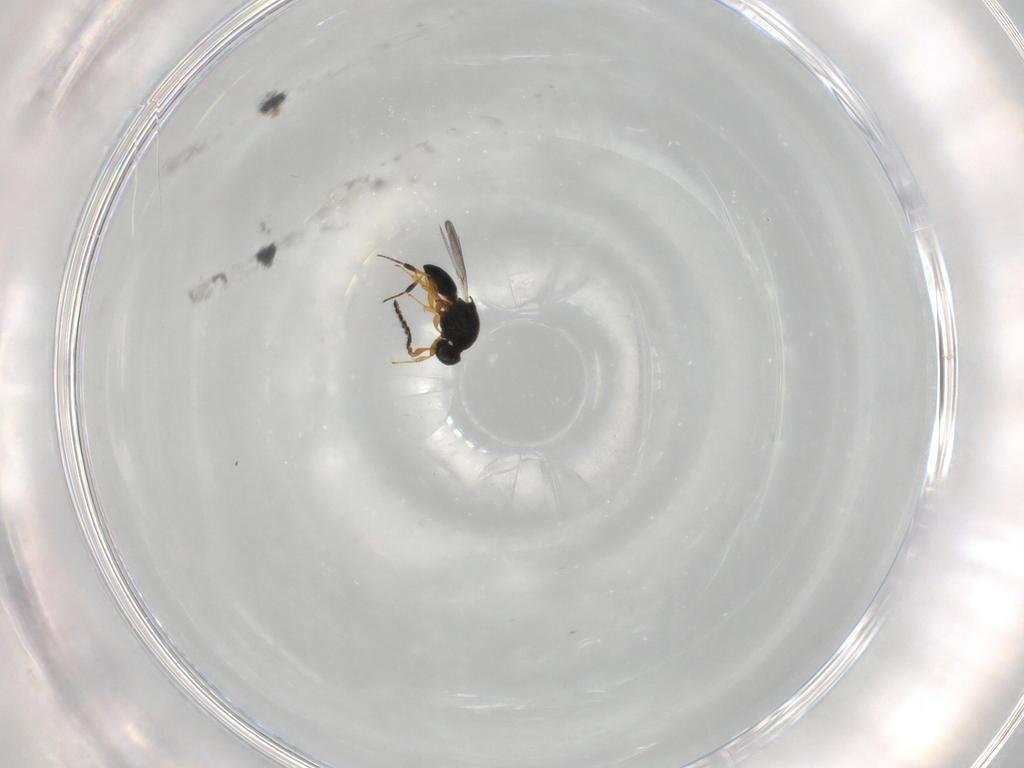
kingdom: Animalia
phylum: Arthropoda
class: Insecta
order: Hymenoptera
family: Platygastridae
